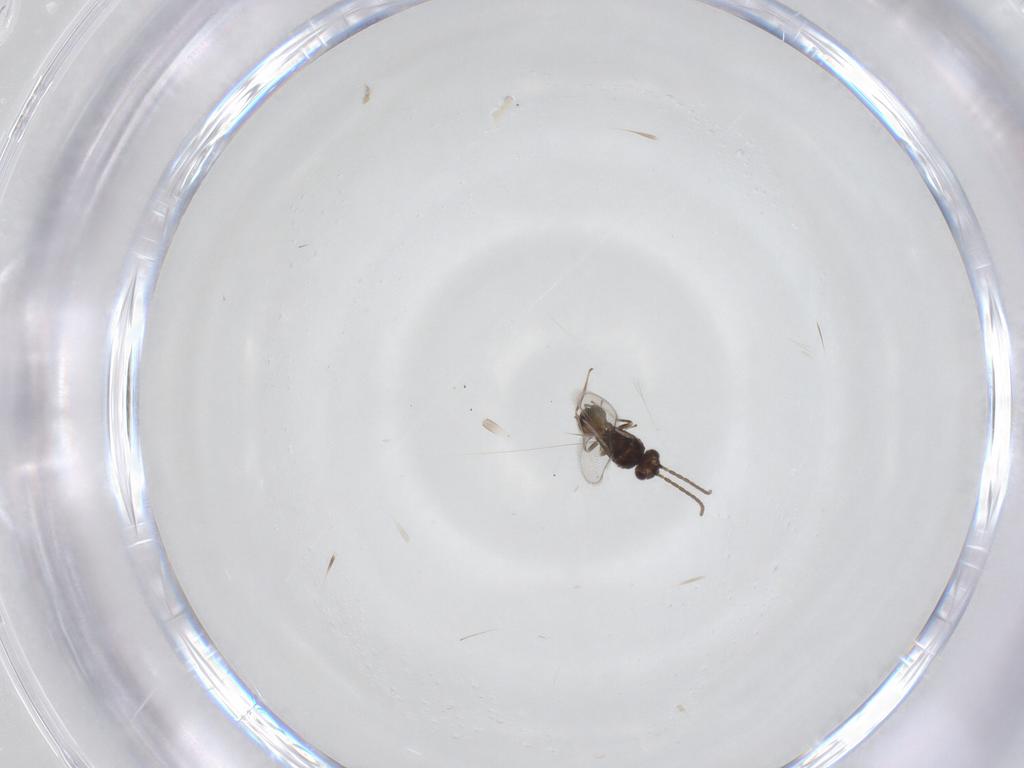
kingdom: Animalia
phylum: Arthropoda
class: Insecta
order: Hymenoptera
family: Mymaridae
